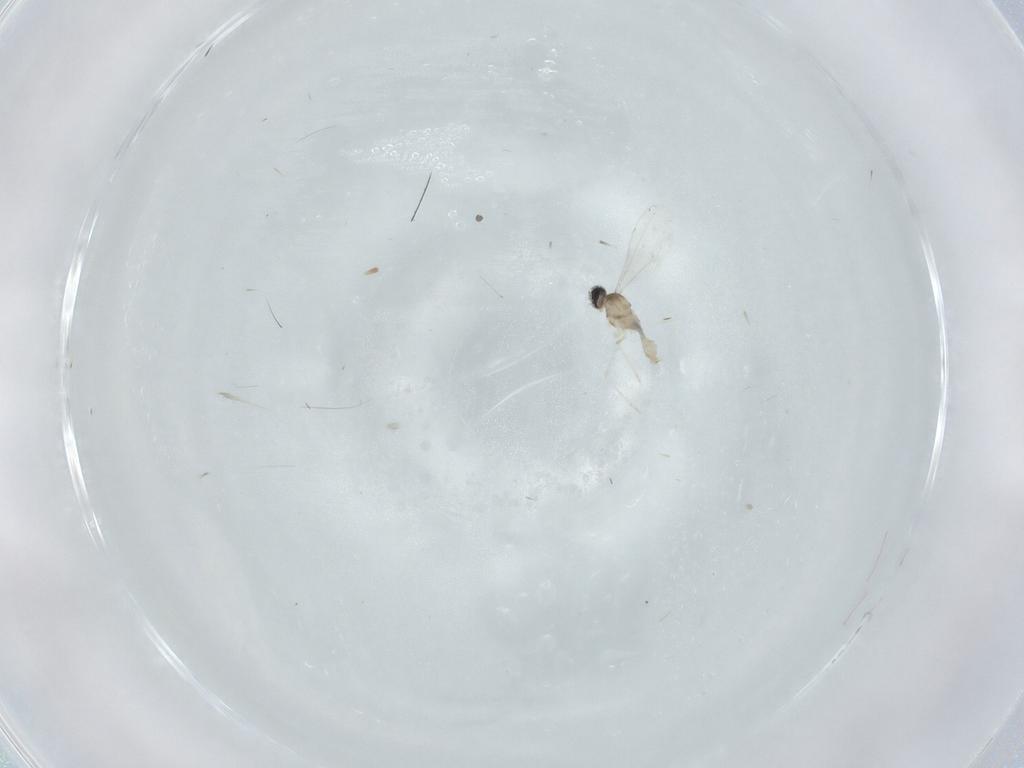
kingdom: Animalia
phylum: Arthropoda
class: Insecta
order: Diptera
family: Cecidomyiidae
